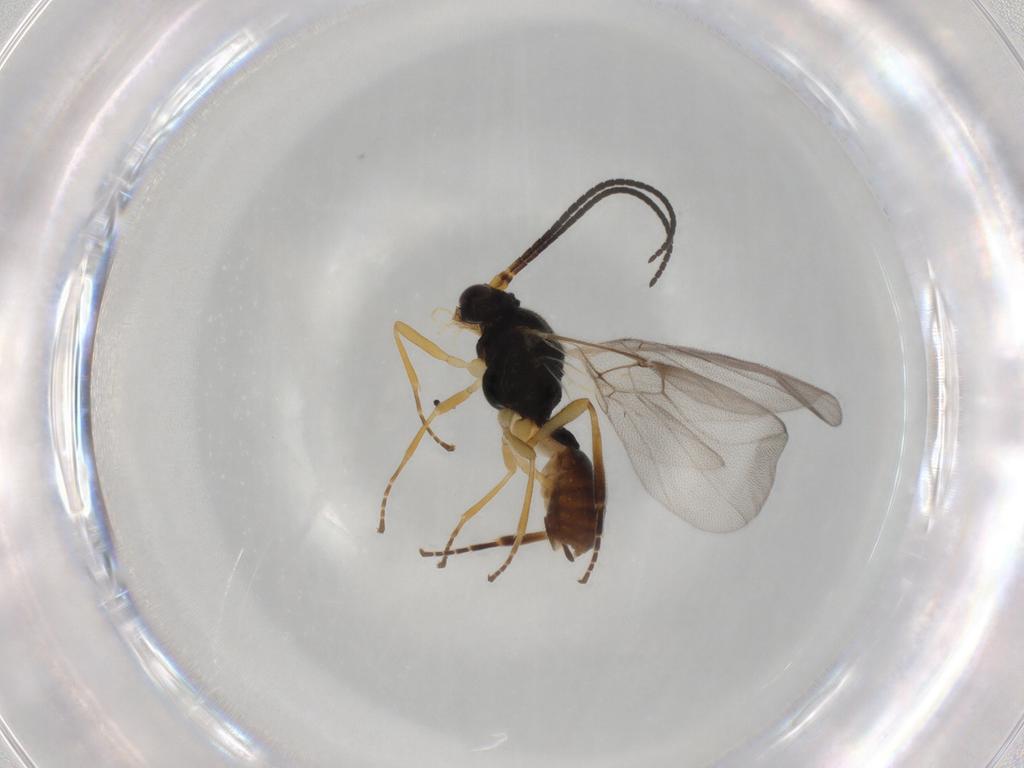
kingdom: Animalia
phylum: Arthropoda
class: Insecta
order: Hymenoptera
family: Braconidae
